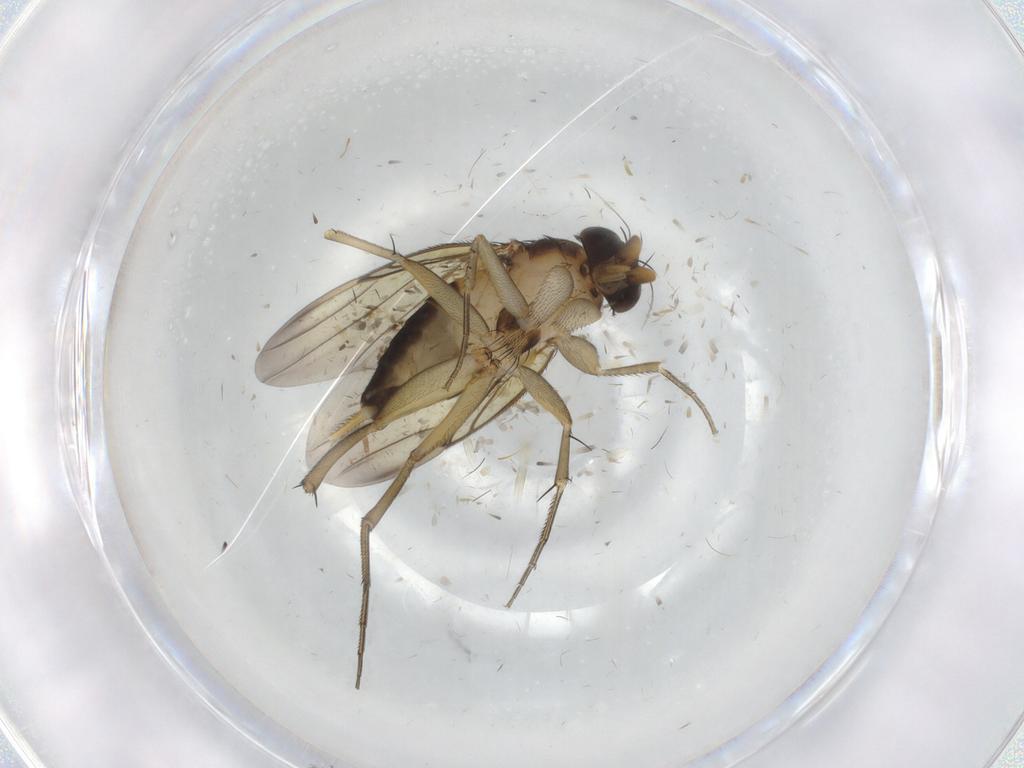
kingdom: Animalia
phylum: Arthropoda
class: Insecta
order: Diptera
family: Phoridae
